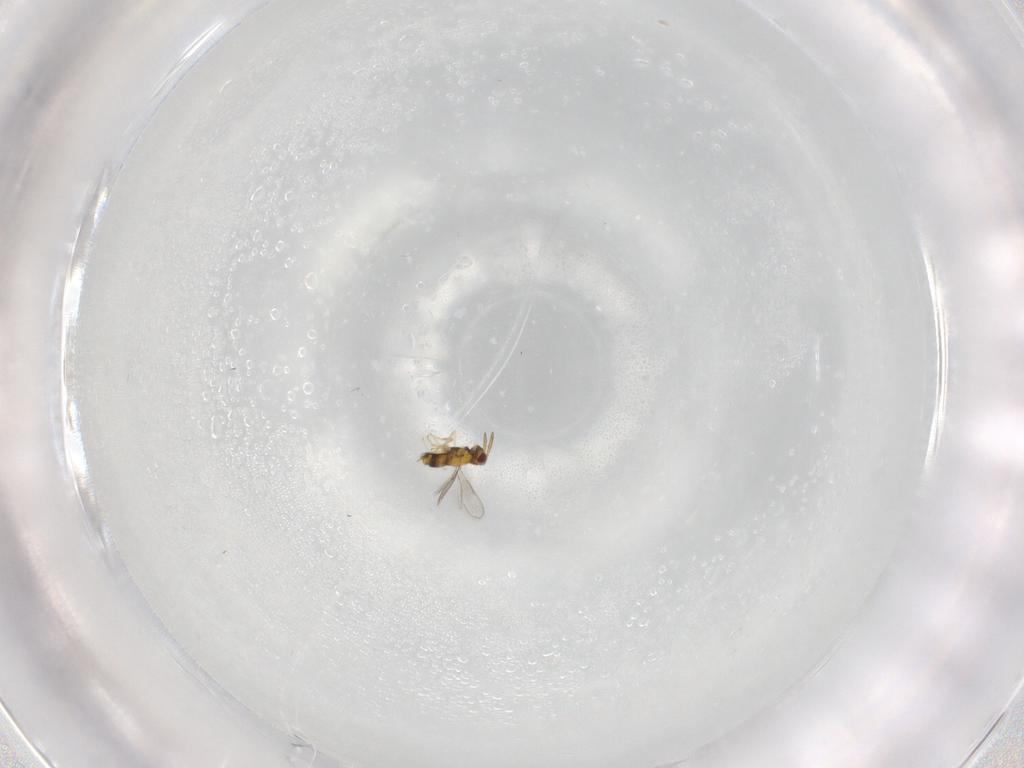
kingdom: Animalia
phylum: Arthropoda
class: Insecta
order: Hymenoptera
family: Aphelinidae
